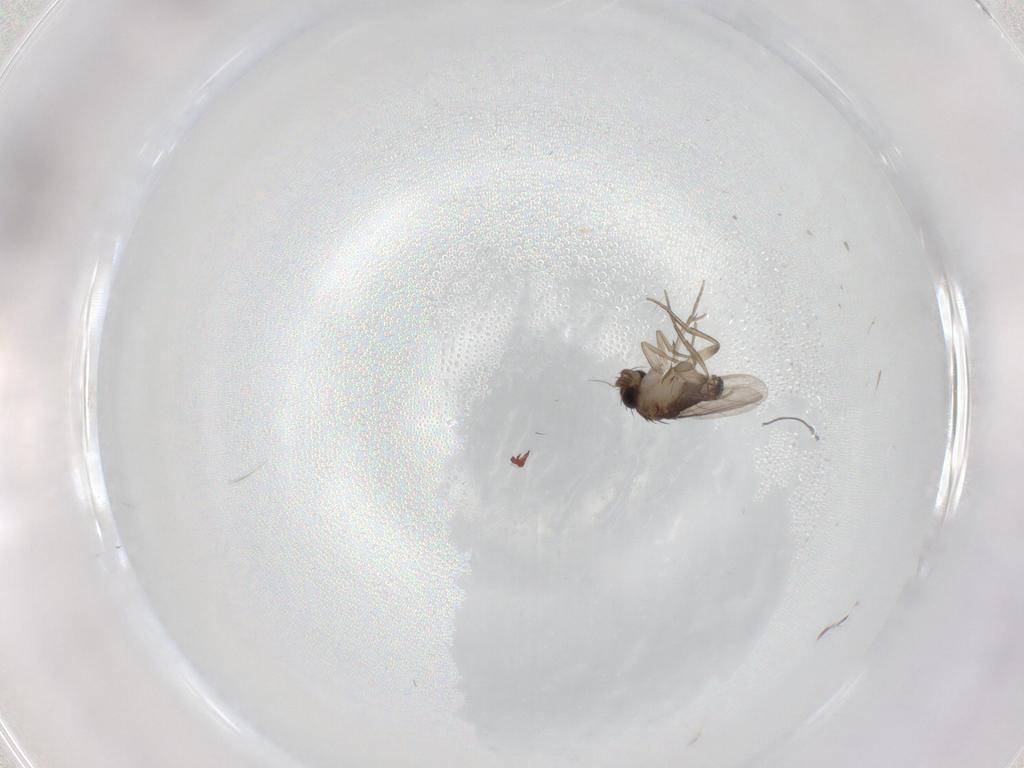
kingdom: Animalia
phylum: Arthropoda
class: Insecta
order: Diptera
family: Phoridae
